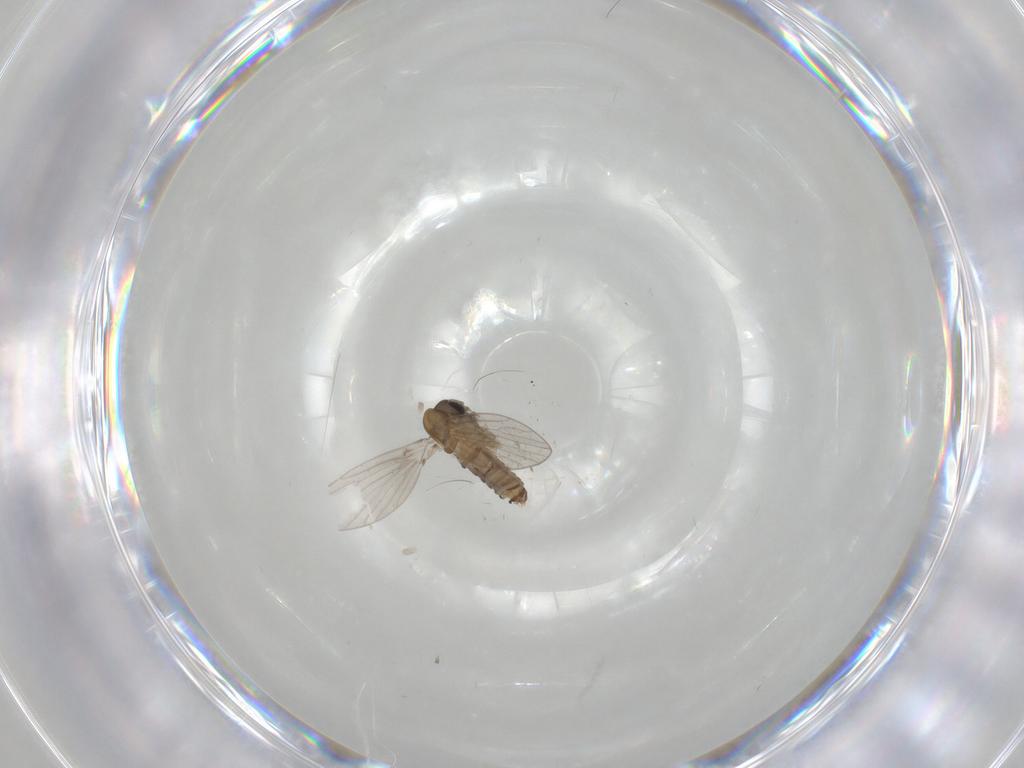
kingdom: Animalia
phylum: Arthropoda
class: Insecta
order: Diptera
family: Psychodidae
